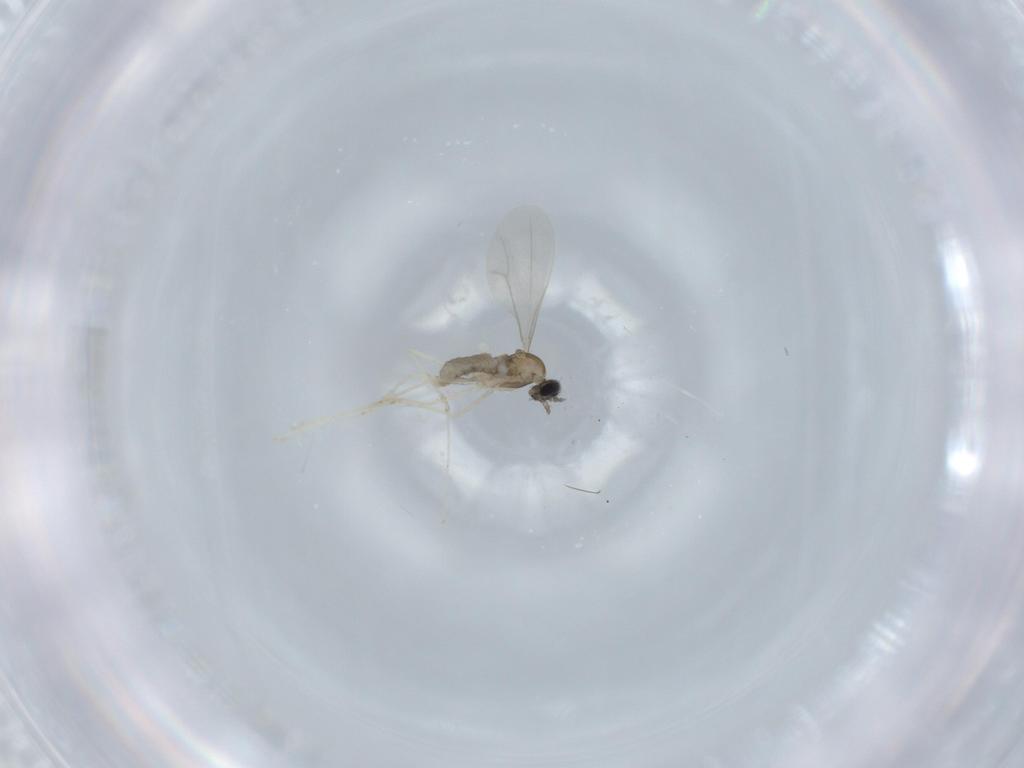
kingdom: Animalia
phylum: Arthropoda
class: Insecta
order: Diptera
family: Cecidomyiidae
